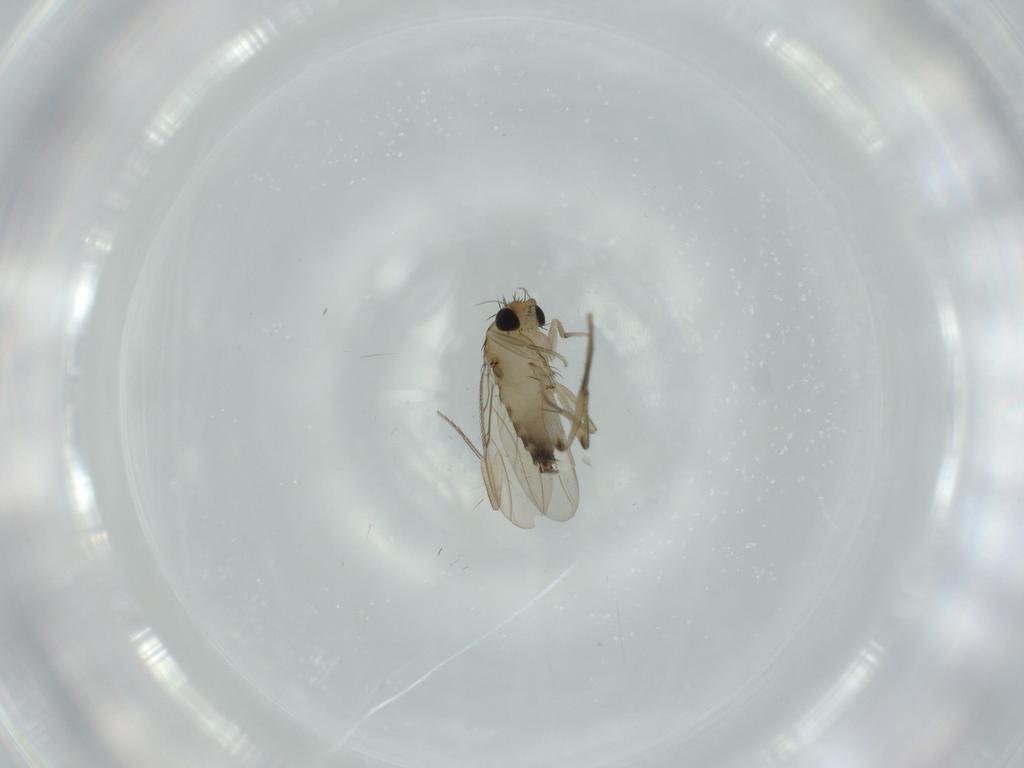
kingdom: Animalia
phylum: Arthropoda
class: Insecta
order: Diptera
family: Phoridae
